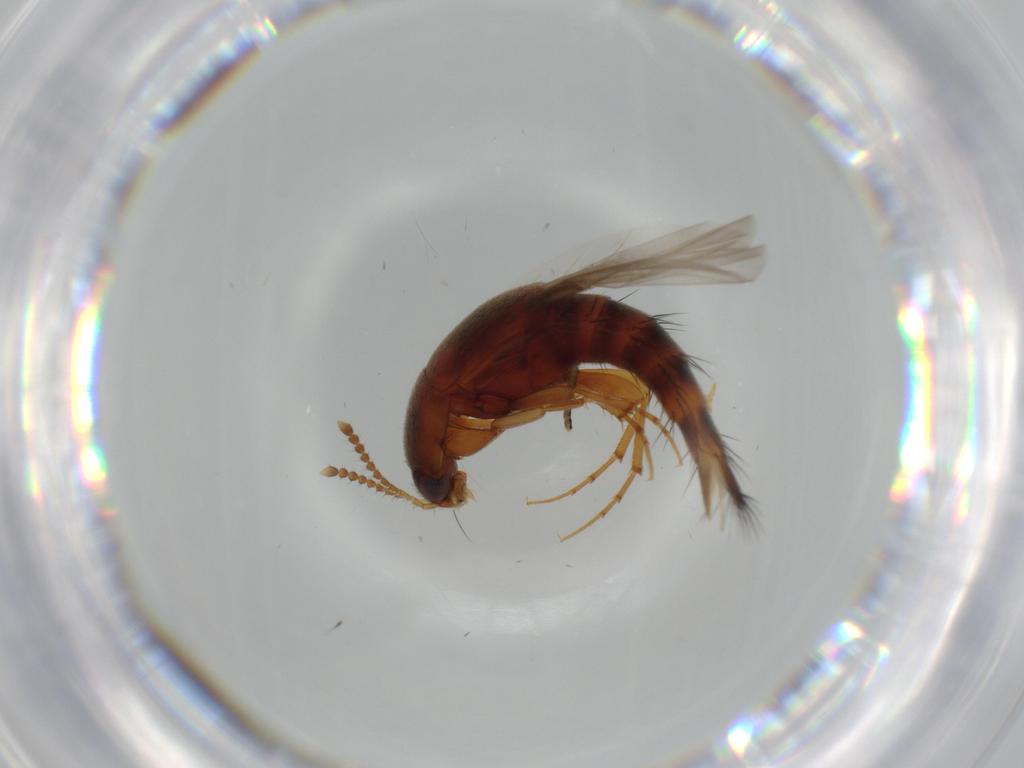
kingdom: Animalia
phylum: Arthropoda
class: Insecta
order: Coleoptera
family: Staphylinidae
